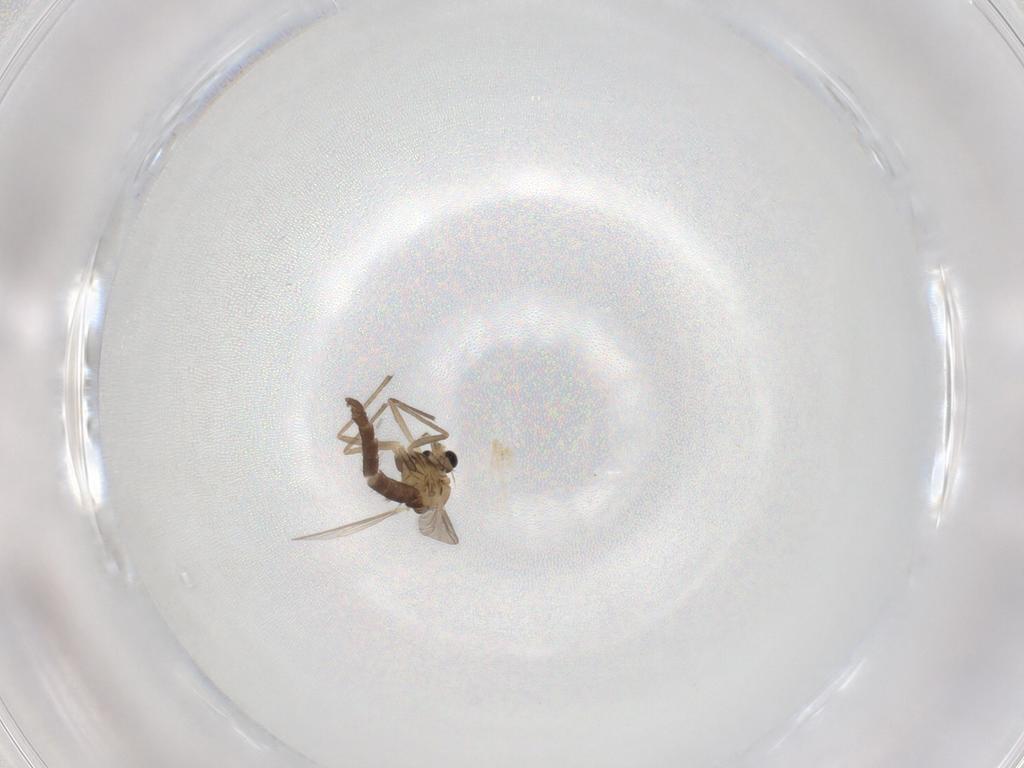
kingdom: Animalia
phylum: Arthropoda
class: Insecta
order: Diptera
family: Chironomidae
